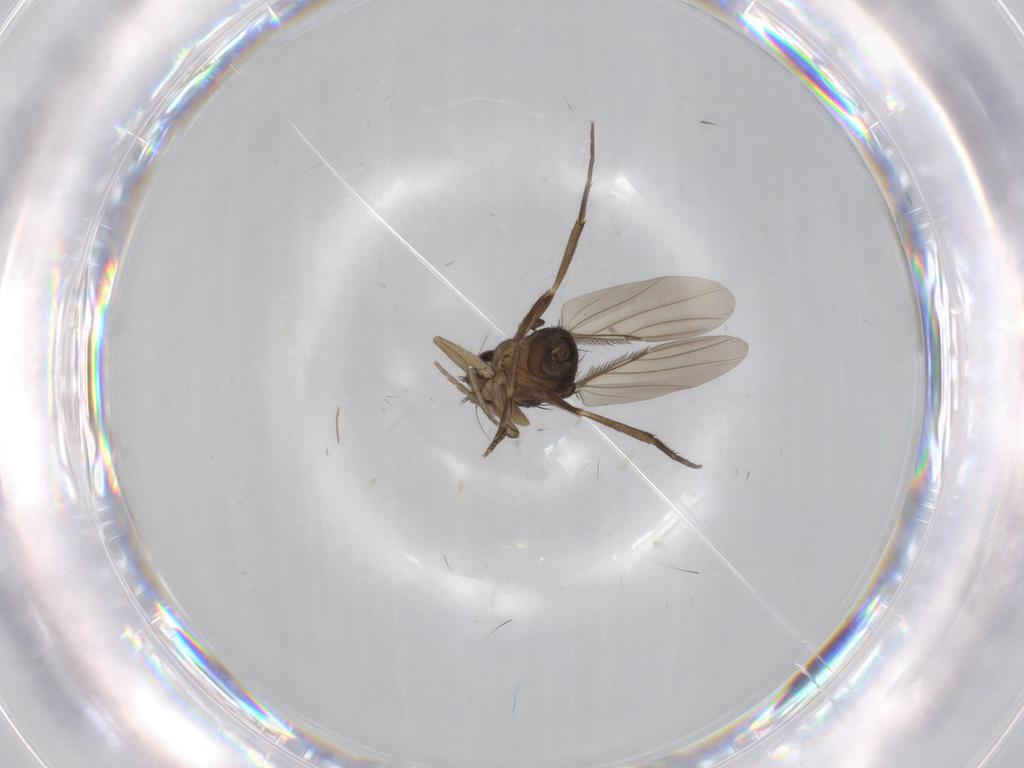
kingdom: Animalia
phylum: Arthropoda
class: Insecta
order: Diptera
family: Phoridae
